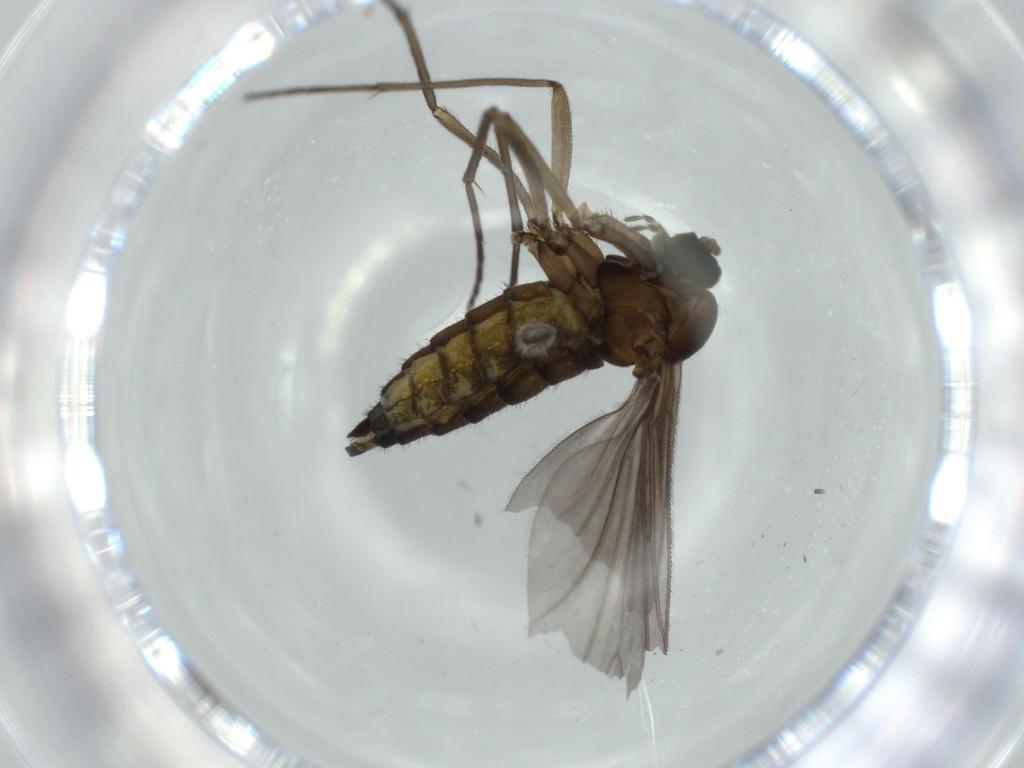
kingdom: Animalia
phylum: Arthropoda
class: Insecta
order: Diptera
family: Sciaridae
